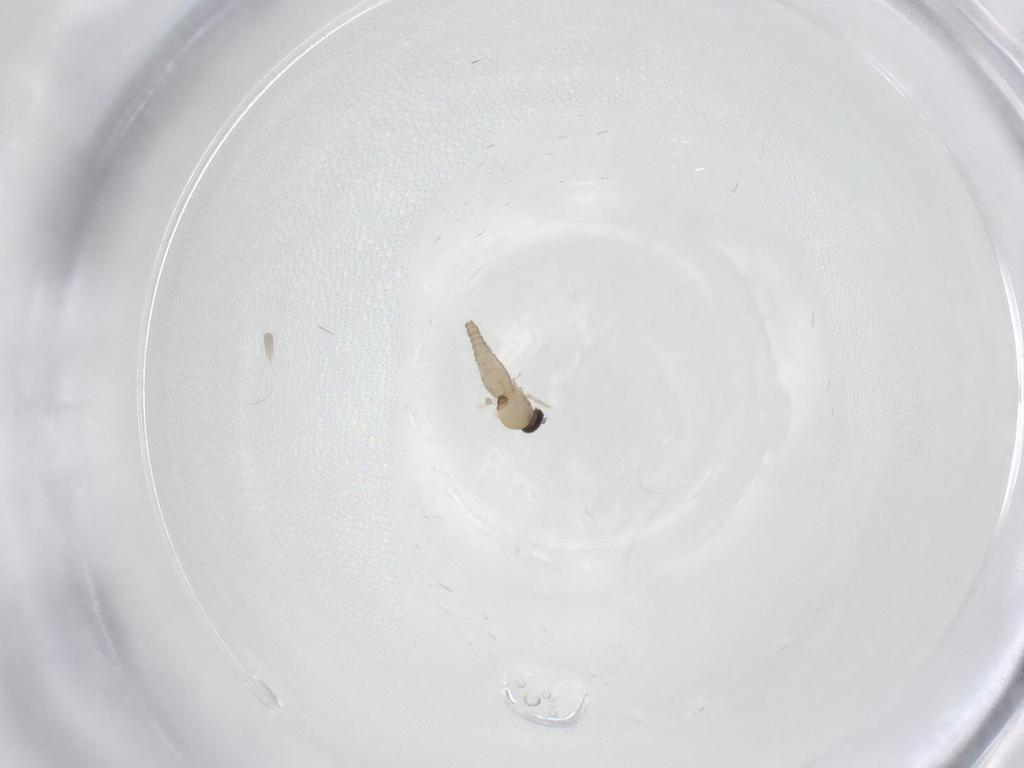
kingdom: Animalia
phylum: Arthropoda
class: Insecta
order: Diptera
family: Ceratopogonidae
